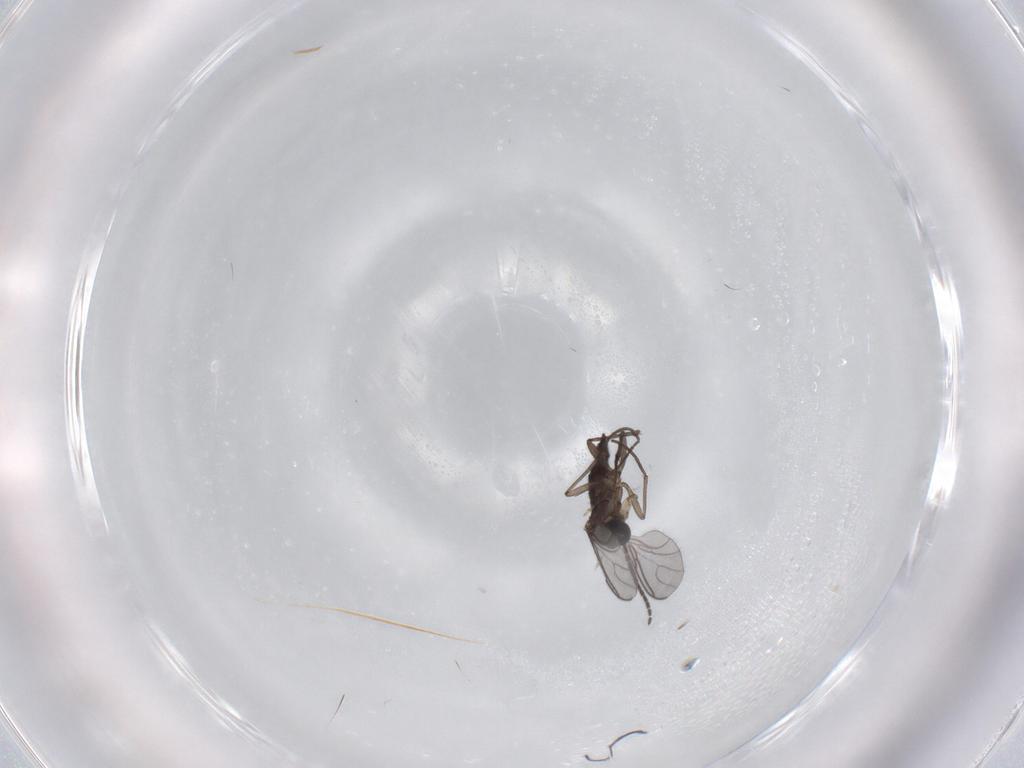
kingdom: Animalia
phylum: Arthropoda
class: Insecta
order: Diptera
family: Sciaridae
